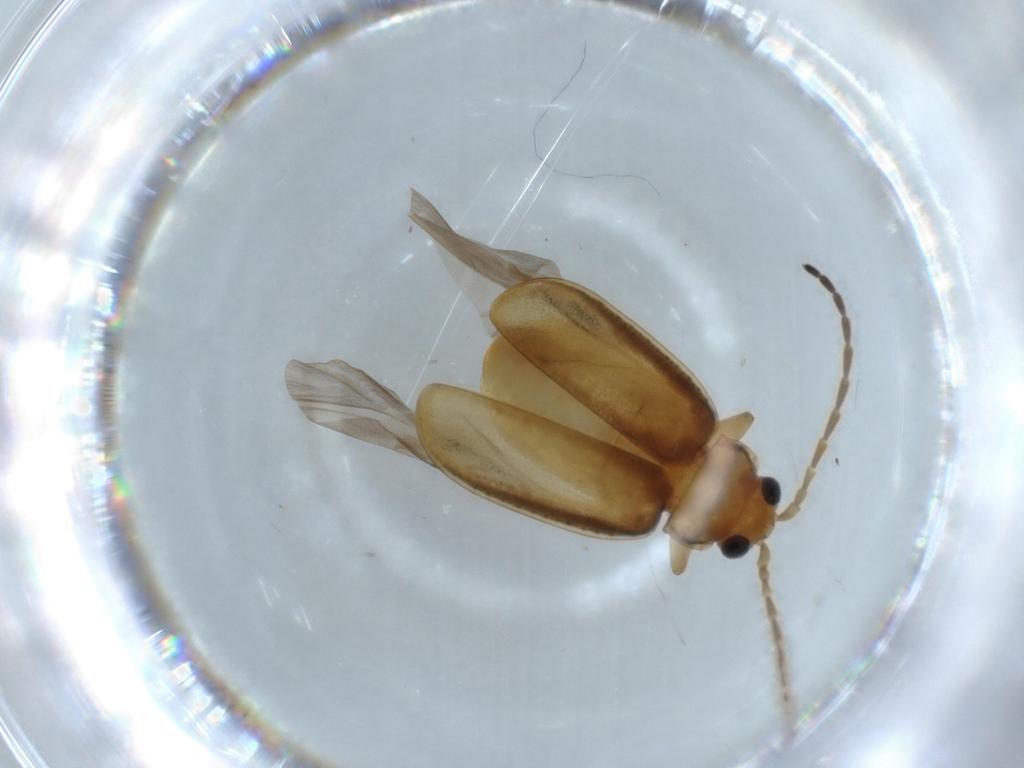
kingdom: Animalia
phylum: Arthropoda
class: Insecta
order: Coleoptera
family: Chrysomelidae
